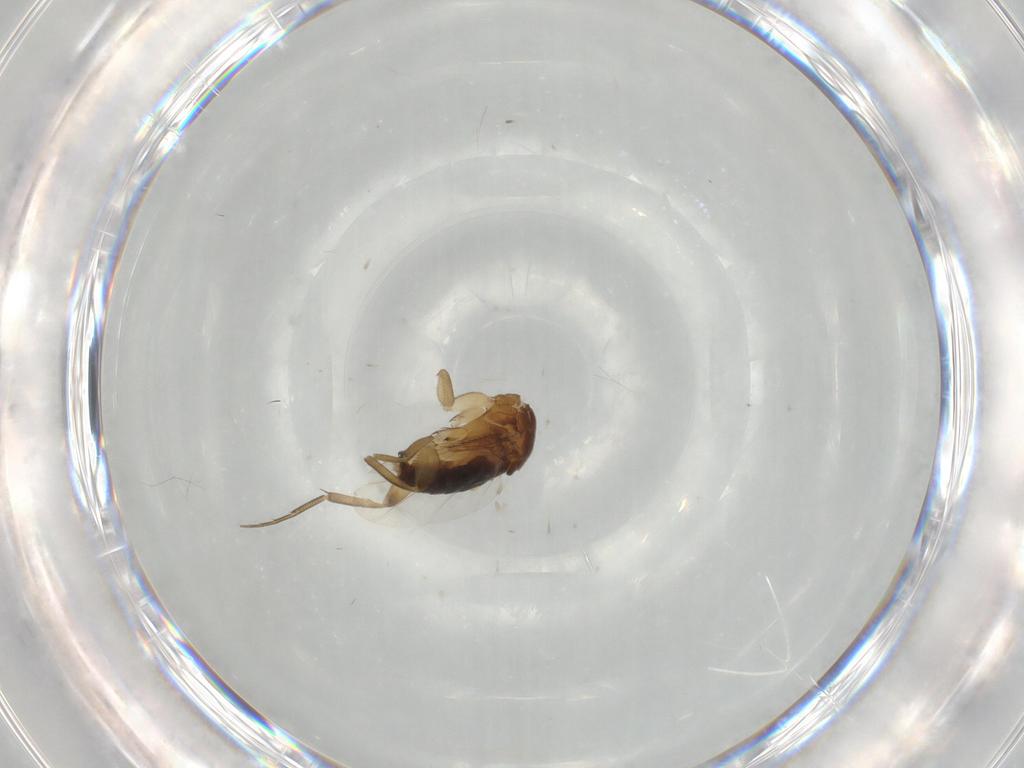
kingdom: Animalia
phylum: Arthropoda
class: Insecta
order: Diptera
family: Phoridae
